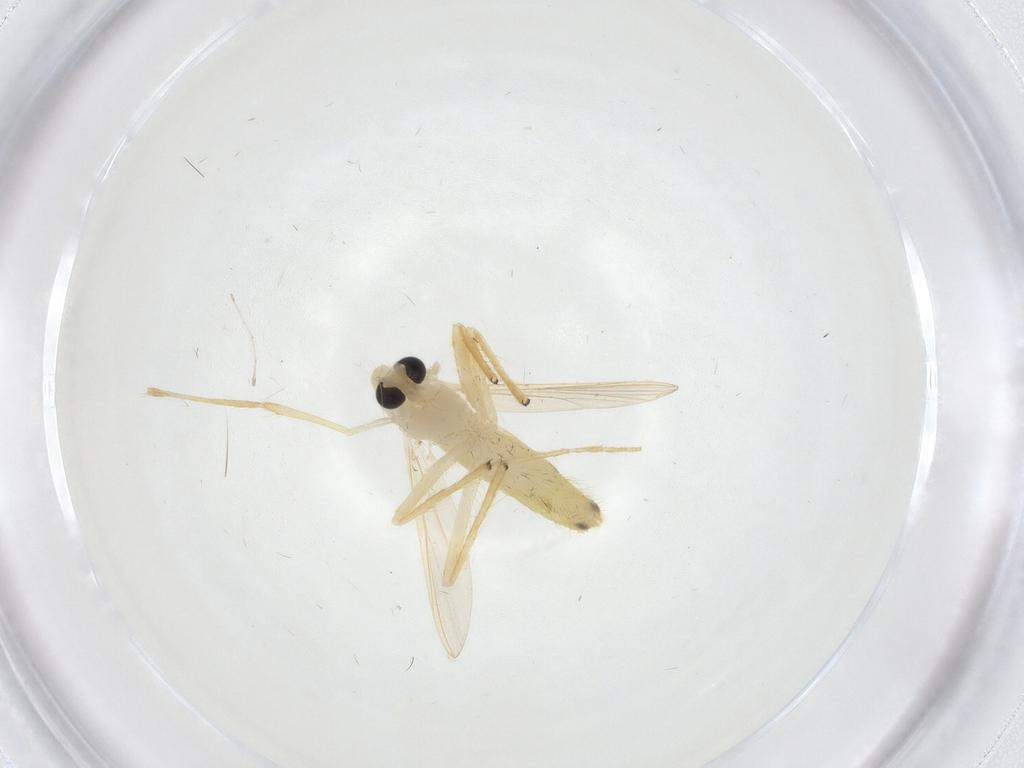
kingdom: Animalia
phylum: Arthropoda
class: Insecta
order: Diptera
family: Chironomidae
